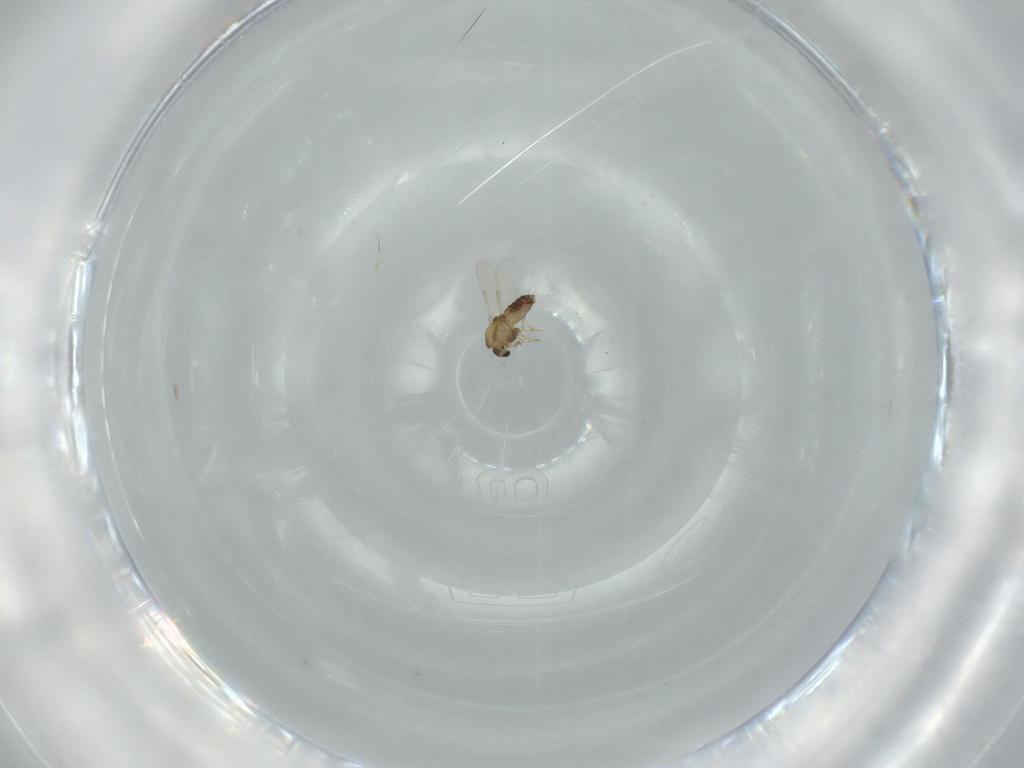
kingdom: Animalia
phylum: Arthropoda
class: Insecta
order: Diptera
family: Chironomidae
